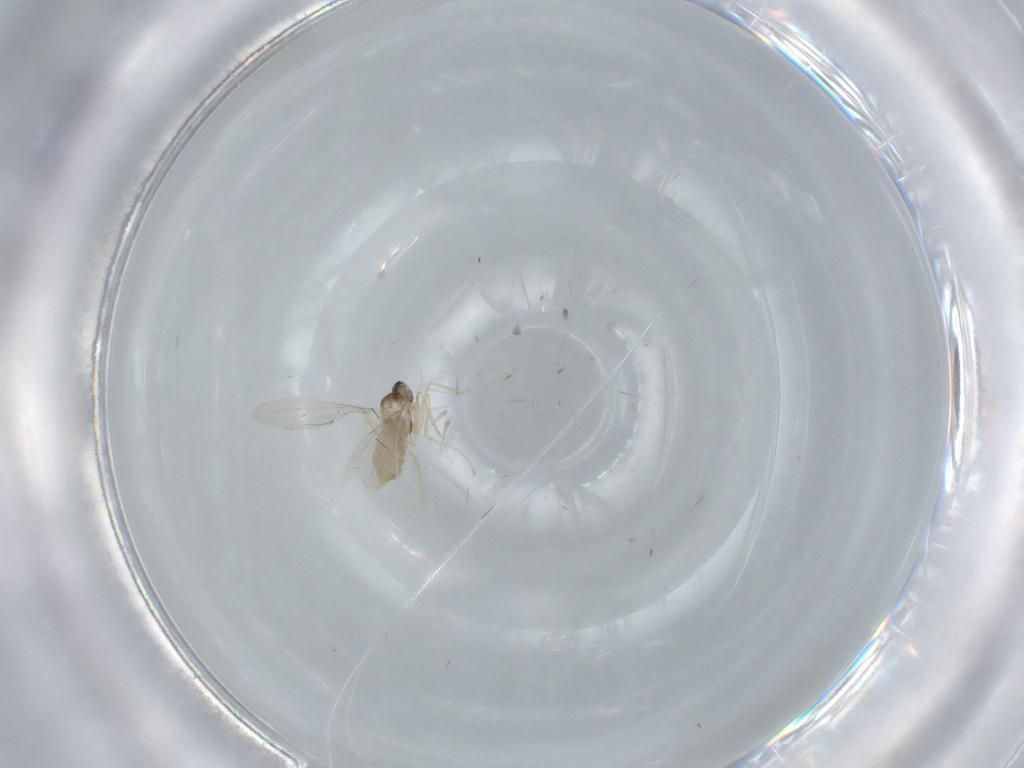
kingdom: Animalia
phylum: Arthropoda
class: Insecta
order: Diptera
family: Cecidomyiidae
